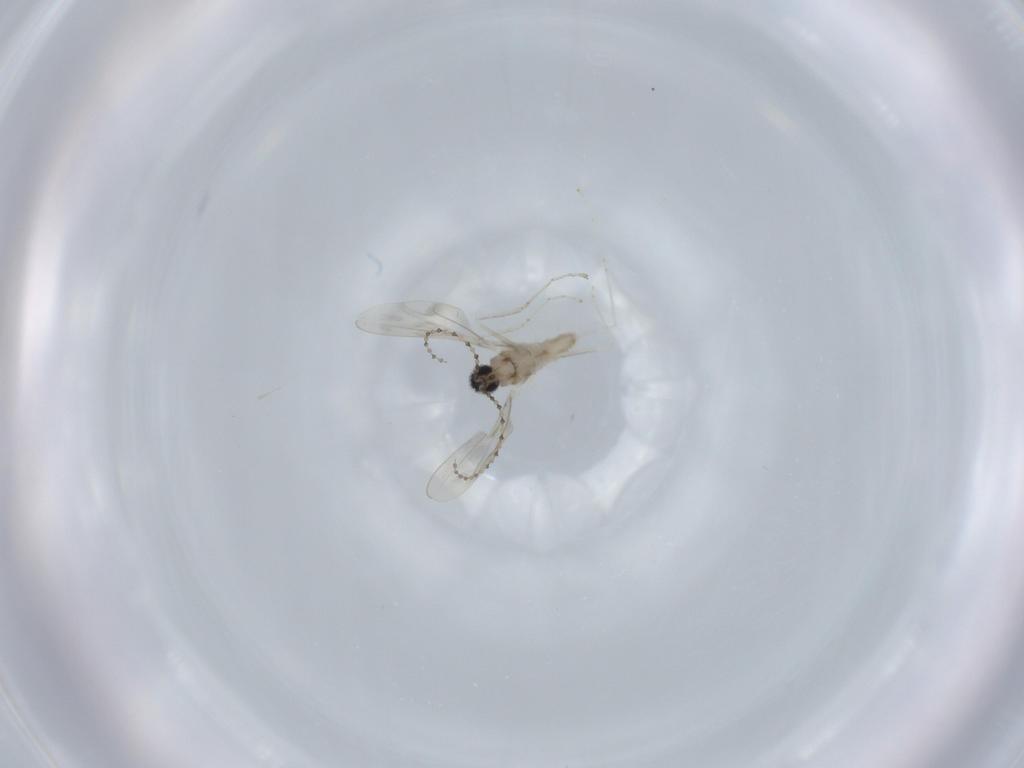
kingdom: Animalia
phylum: Arthropoda
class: Insecta
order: Diptera
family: Cecidomyiidae
